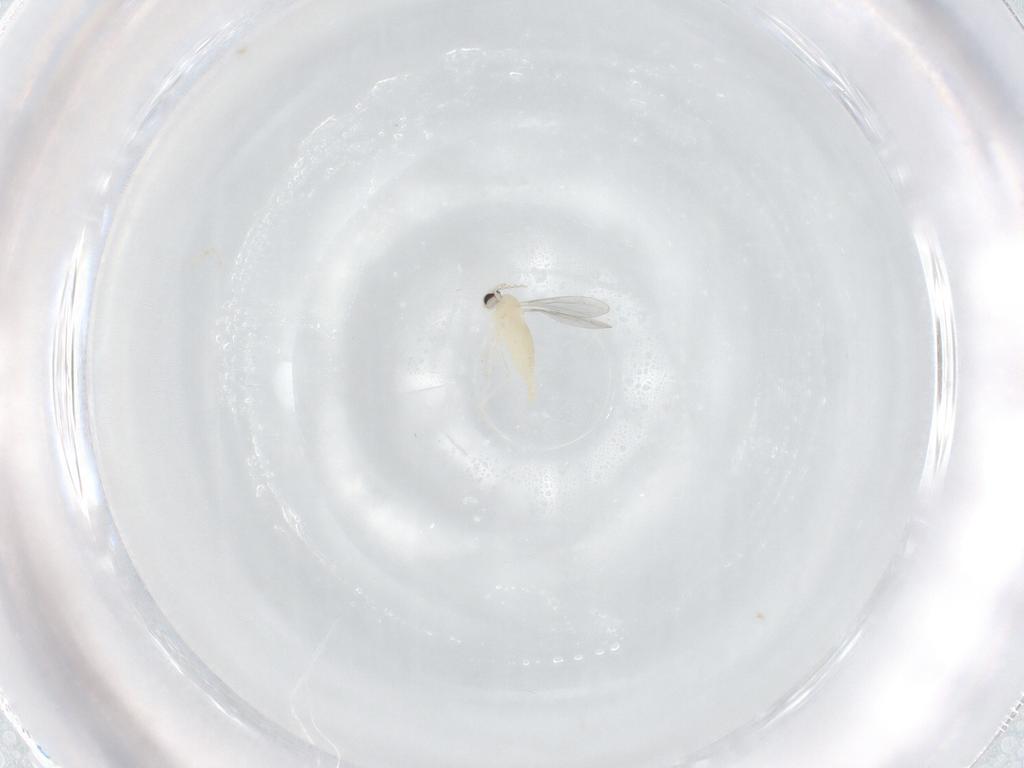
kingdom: Animalia
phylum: Arthropoda
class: Insecta
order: Diptera
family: Cecidomyiidae
